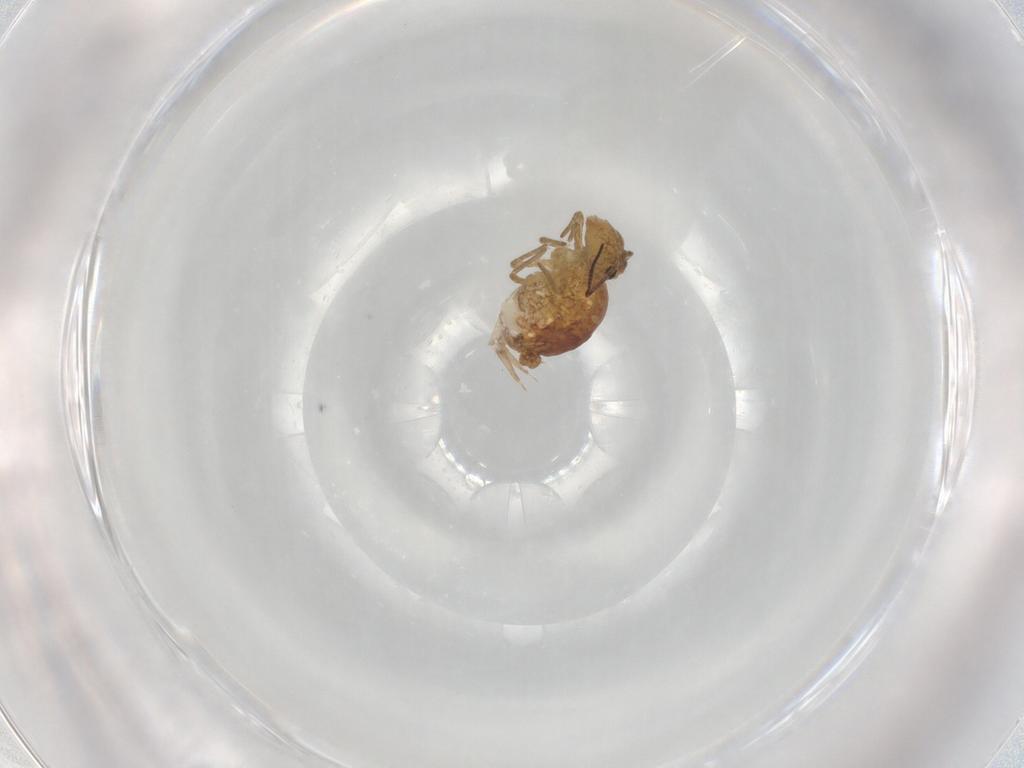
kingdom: Animalia
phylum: Arthropoda
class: Collembola
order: Symphypleona
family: Sminthuridae
